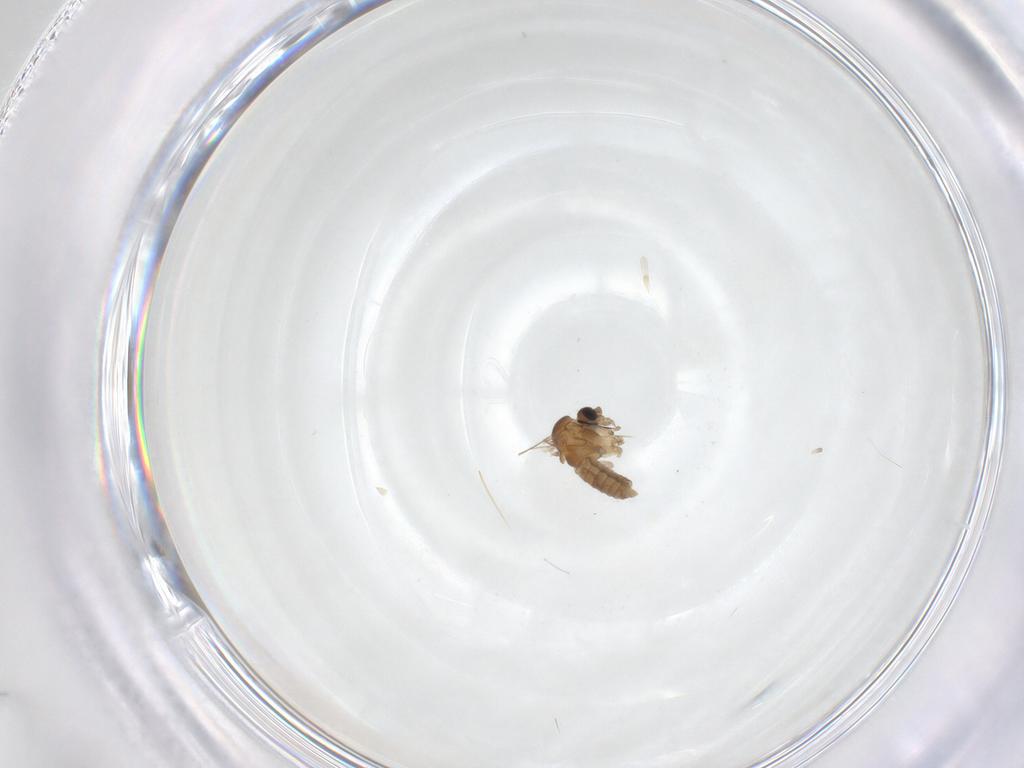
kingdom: Animalia
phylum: Arthropoda
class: Insecta
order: Diptera
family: Psychodidae
